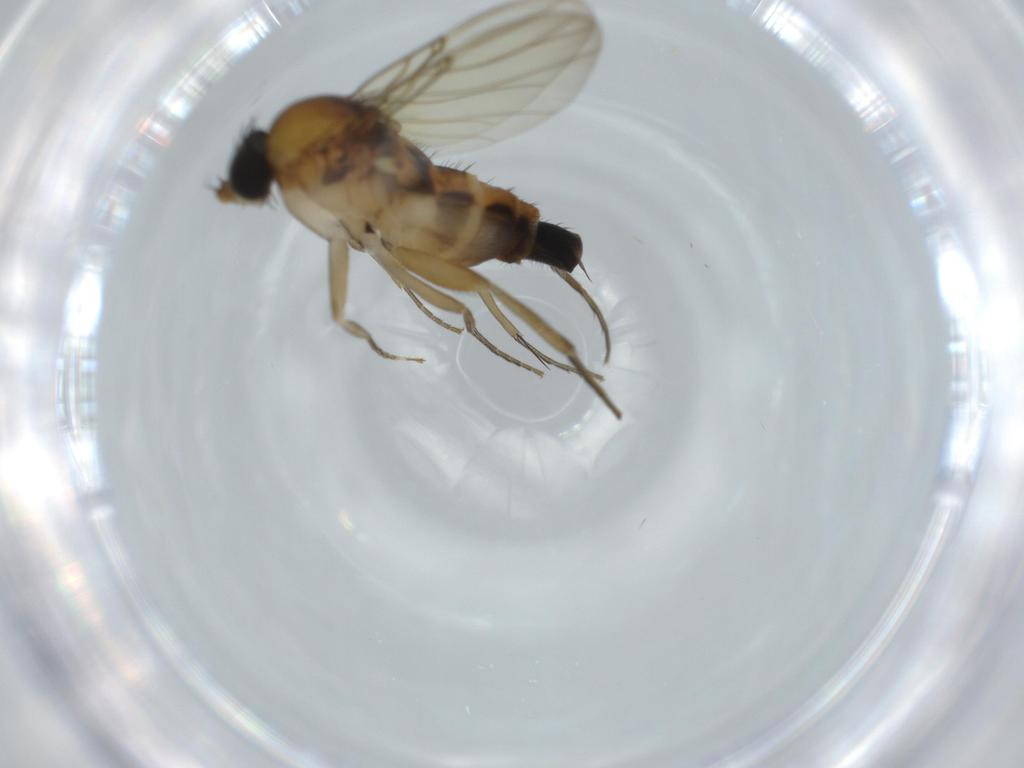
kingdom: Animalia
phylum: Arthropoda
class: Insecta
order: Diptera
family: Phoridae
